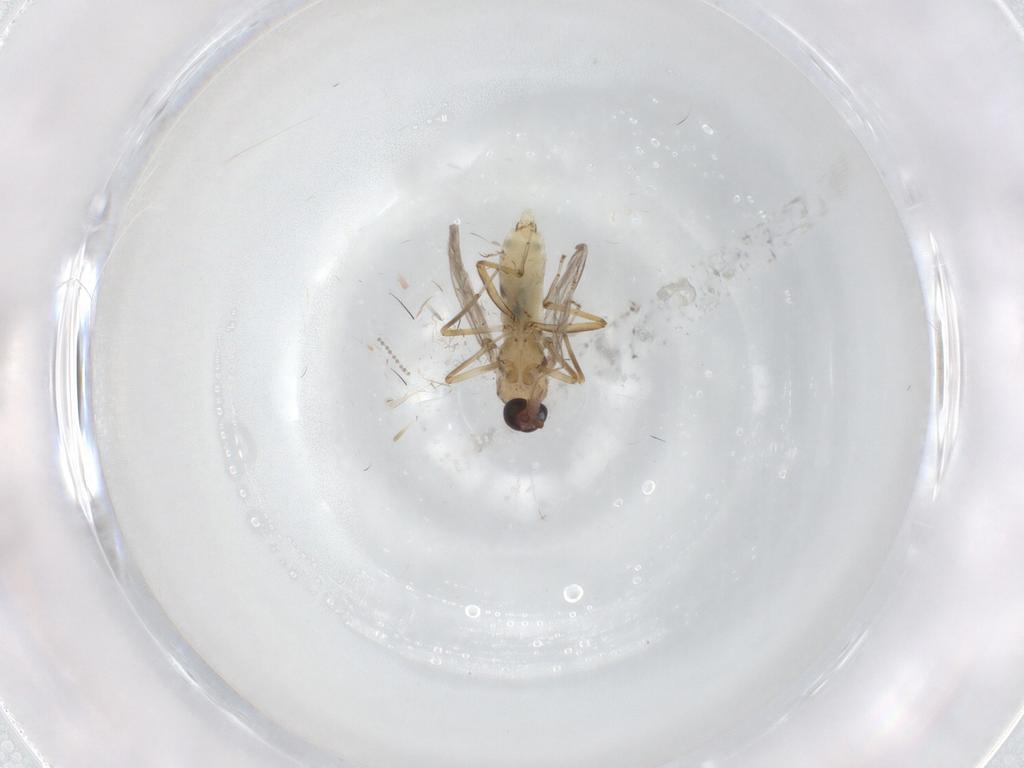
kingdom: Animalia
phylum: Arthropoda
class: Insecta
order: Diptera
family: Ceratopogonidae
